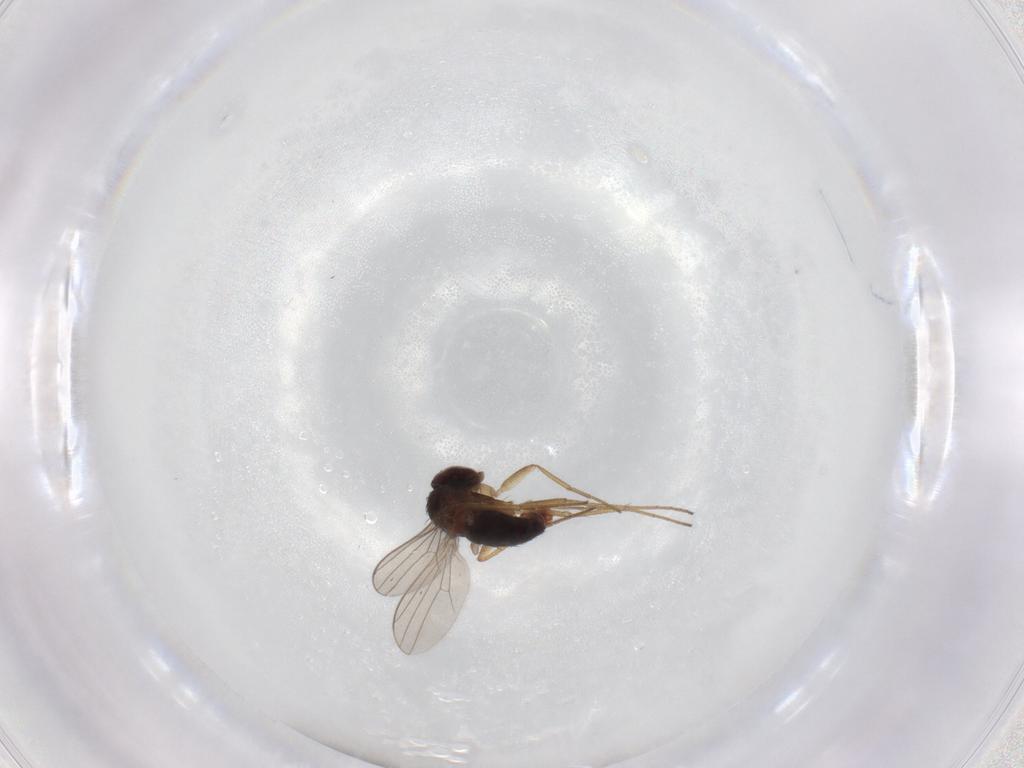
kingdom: Animalia
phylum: Arthropoda
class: Insecta
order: Diptera
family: Dolichopodidae
